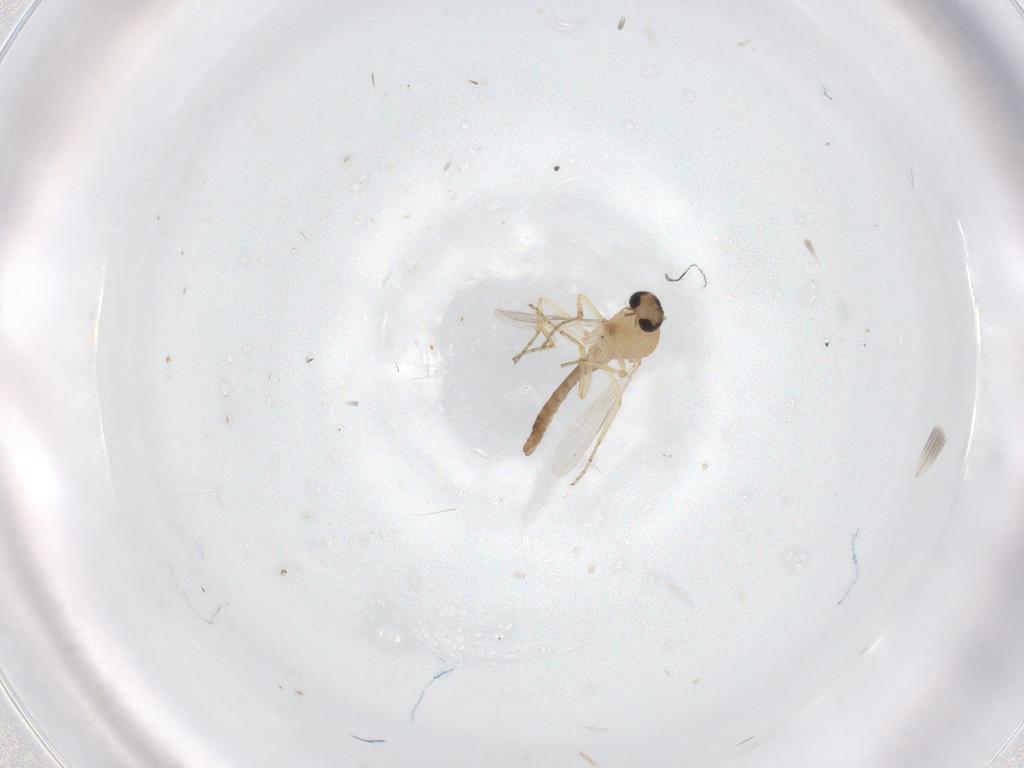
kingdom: Animalia
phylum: Arthropoda
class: Insecta
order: Diptera
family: Ceratopogonidae
